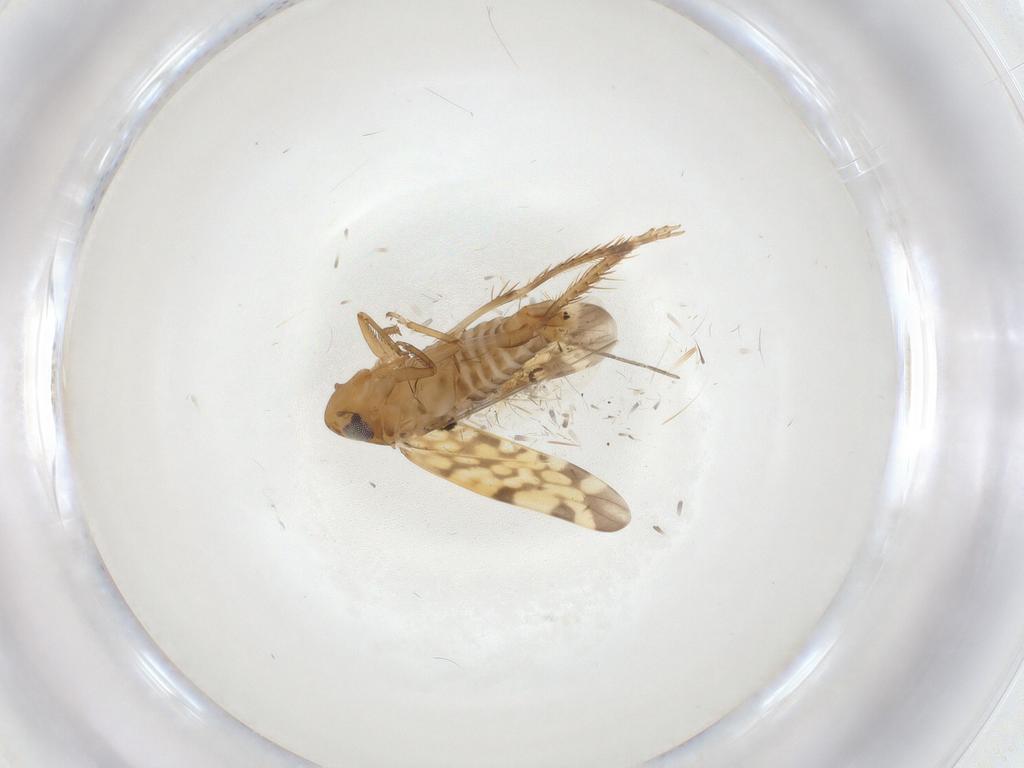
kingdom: Animalia
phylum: Arthropoda
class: Insecta
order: Hemiptera
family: Cicadellidae
